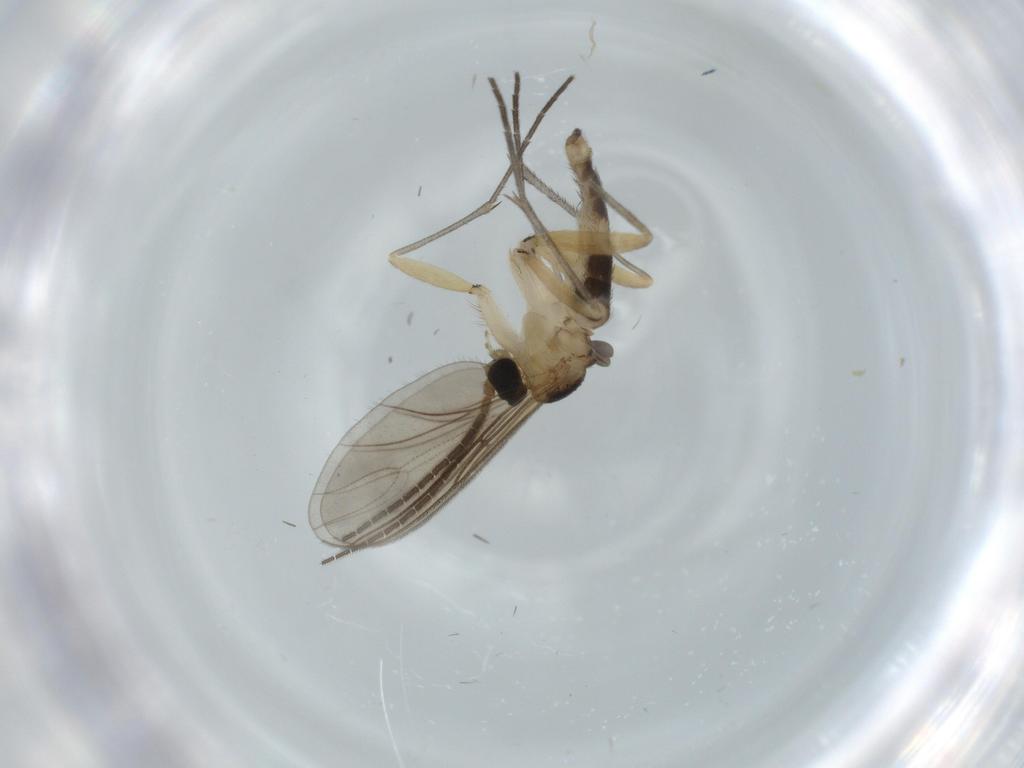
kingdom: Animalia
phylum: Arthropoda
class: Insecta
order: Diptera
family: Sciaridae
